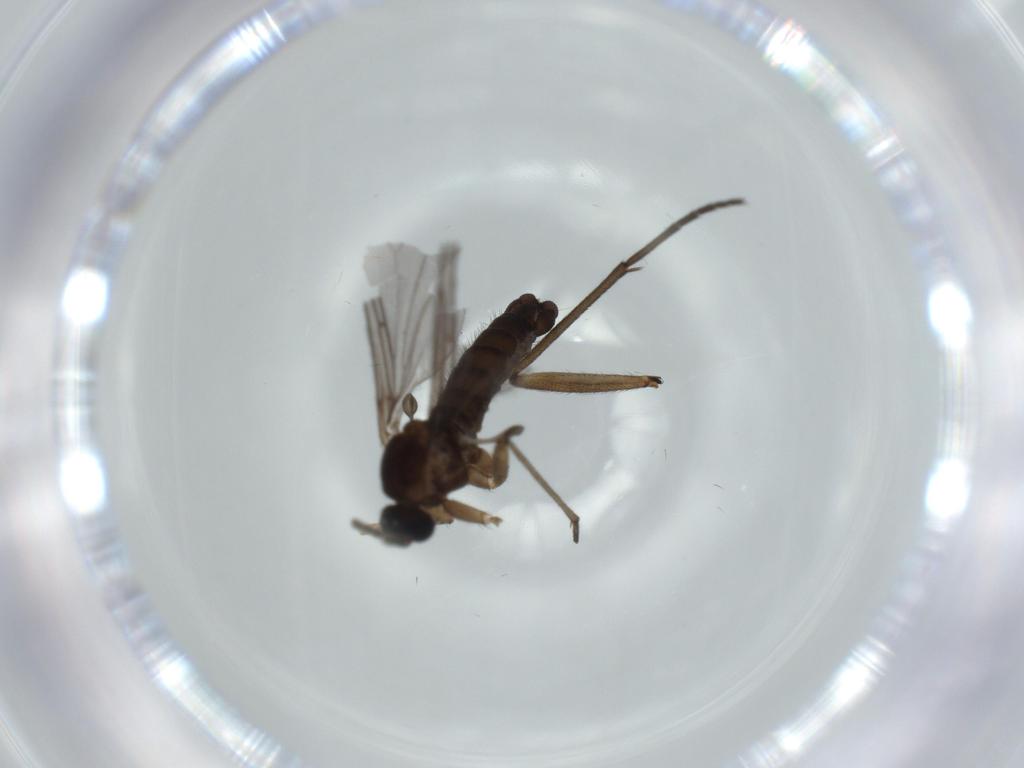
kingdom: Animalia
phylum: Arthropoda
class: Insecta
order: Diptera
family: Sciaridae
